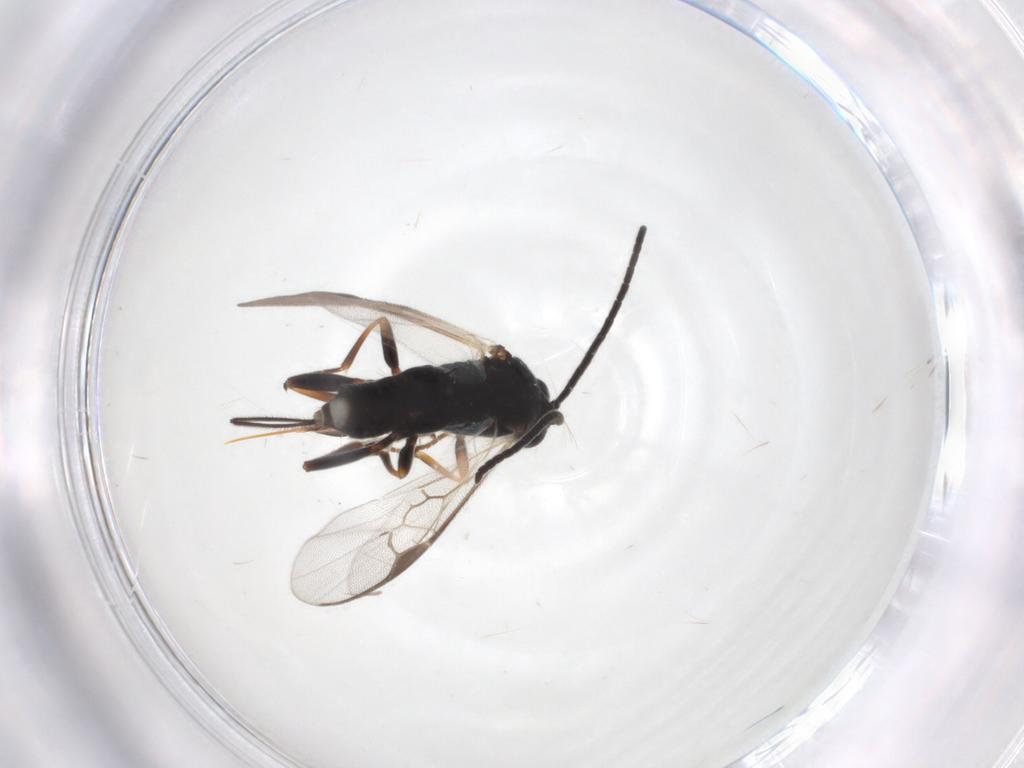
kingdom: Animalia
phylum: Arthropoda
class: Insecta
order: Hymenoptera
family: Braconidae
